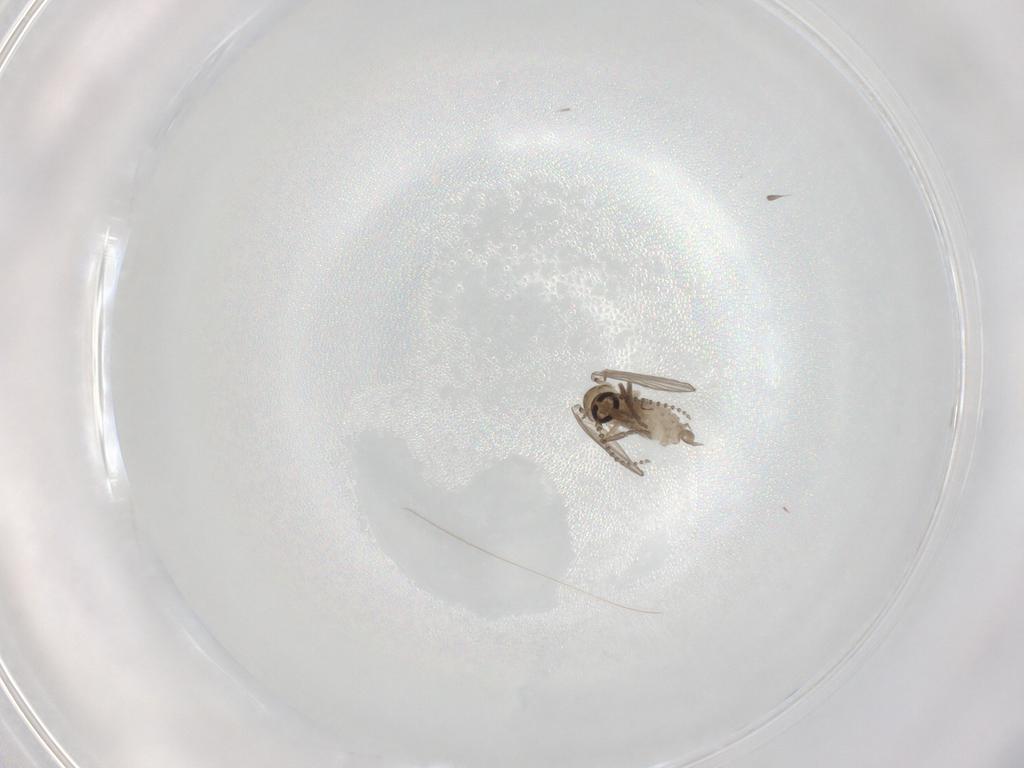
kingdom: Animalia
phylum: Arthropoda
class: Insecta
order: Diptera
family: Psychodidae
